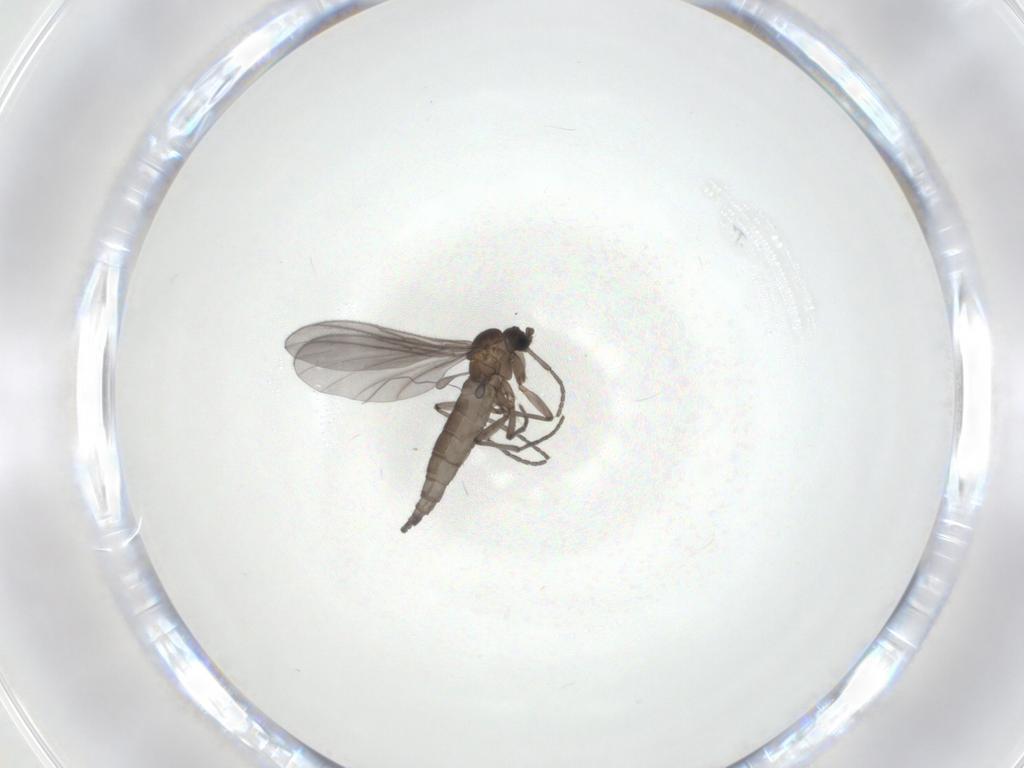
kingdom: Animalia
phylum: Arthropoda
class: Insecta
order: Diptera
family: Sciaridae
